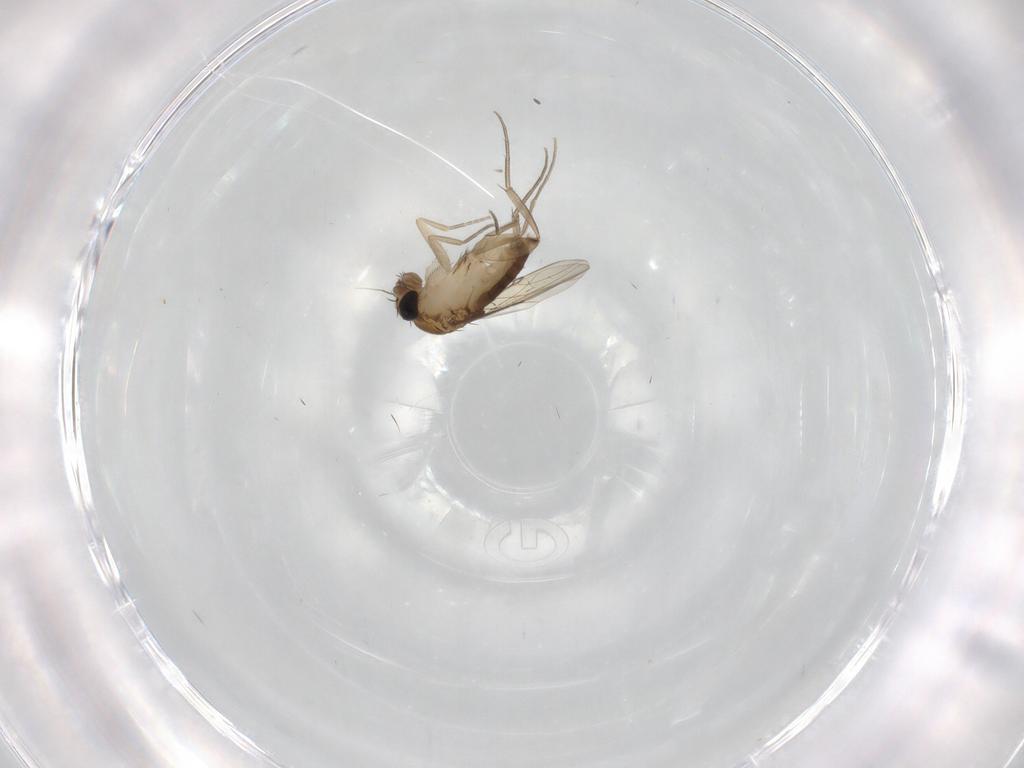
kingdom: Animalia
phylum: Arthropoda
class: Insecta
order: Diptera
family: Phoridae
